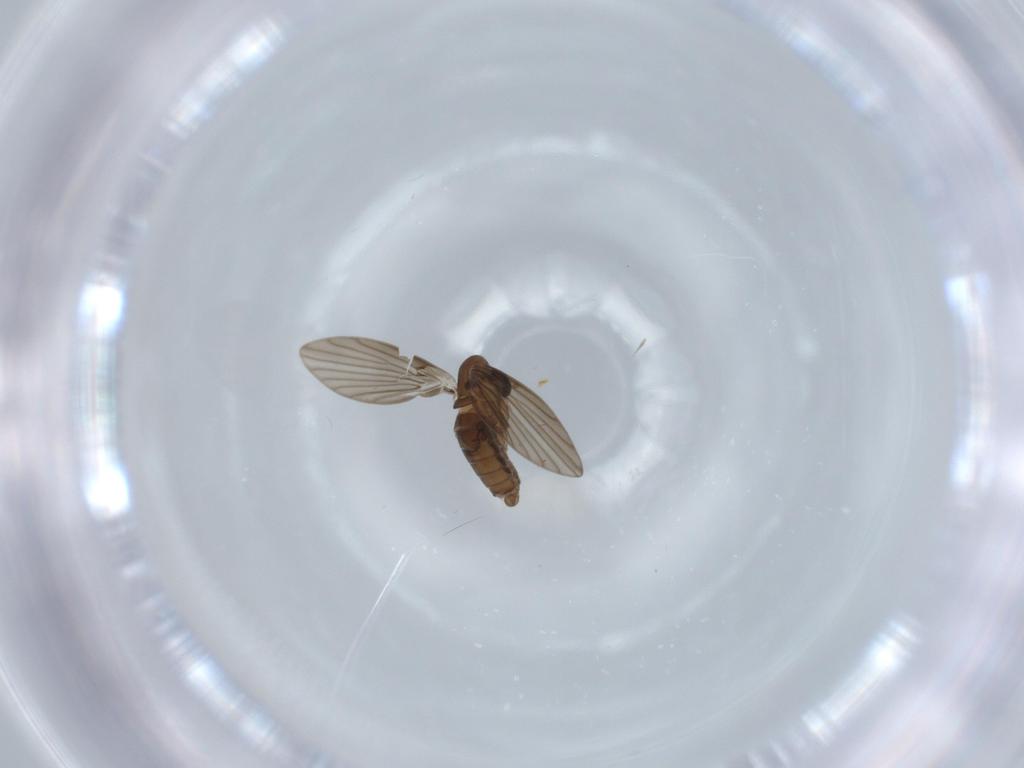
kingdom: Animalia
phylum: Arthropoda
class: Insecta
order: Diptera
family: Psychodidae
